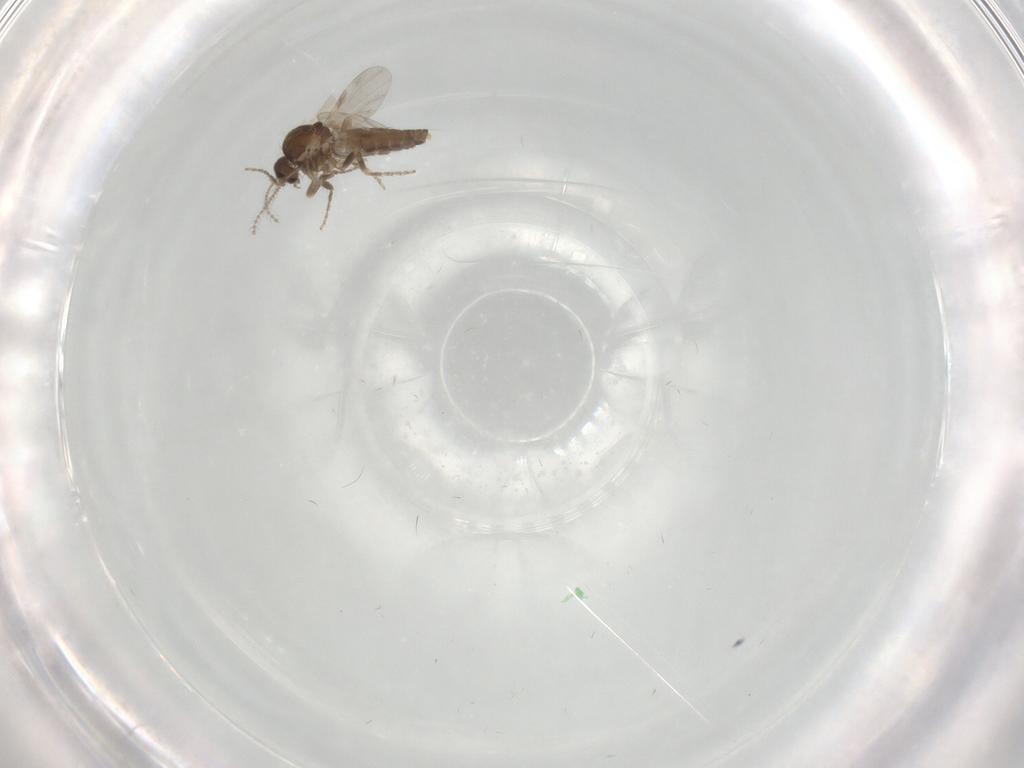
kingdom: Animalia
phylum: Arthropoda
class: Insecta
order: Diptera
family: Ceratopogonidae
